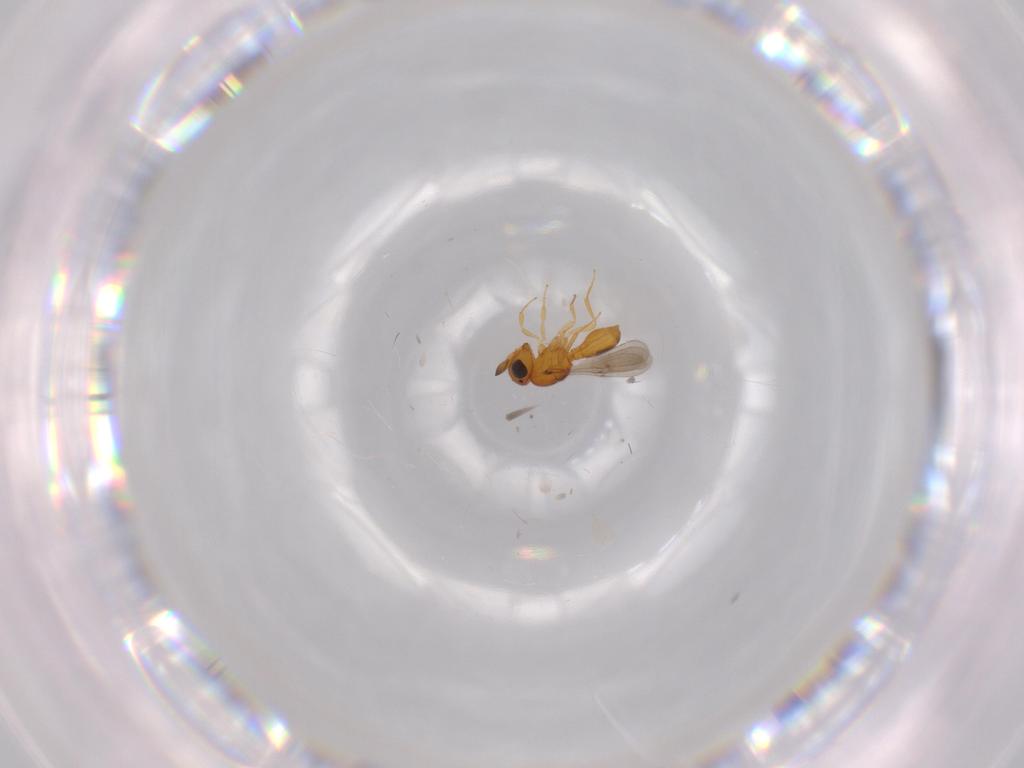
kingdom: Animalia
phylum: Arthropoda
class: Insecta
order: Hymenoptera
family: Scelionidae
